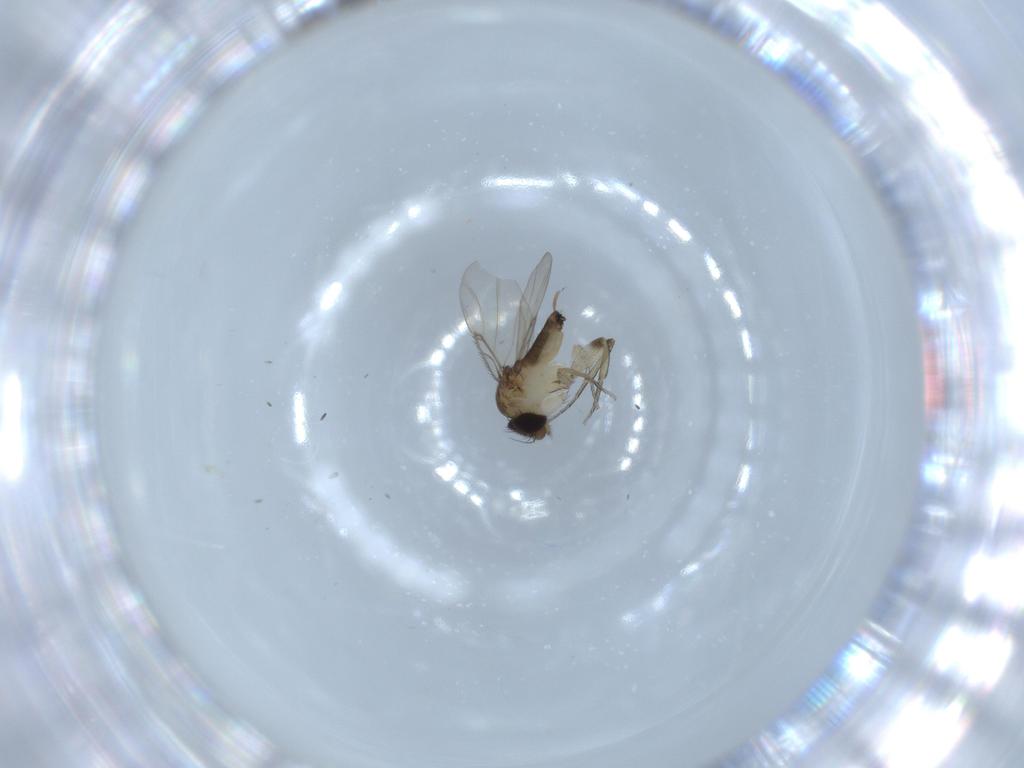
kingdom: Animalia
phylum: Arthropoda
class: Insecta
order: Diptera
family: Phoridae
